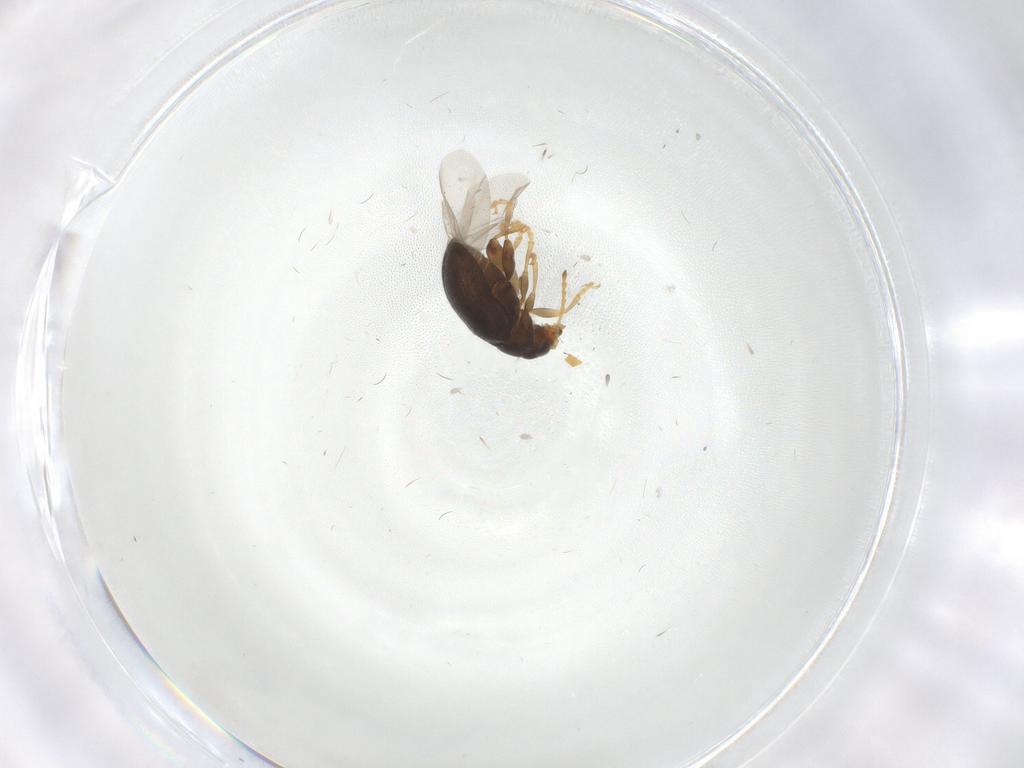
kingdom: Animalia
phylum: Arthropoda
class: Insecta
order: Coleoptera
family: Chrysomelidae
